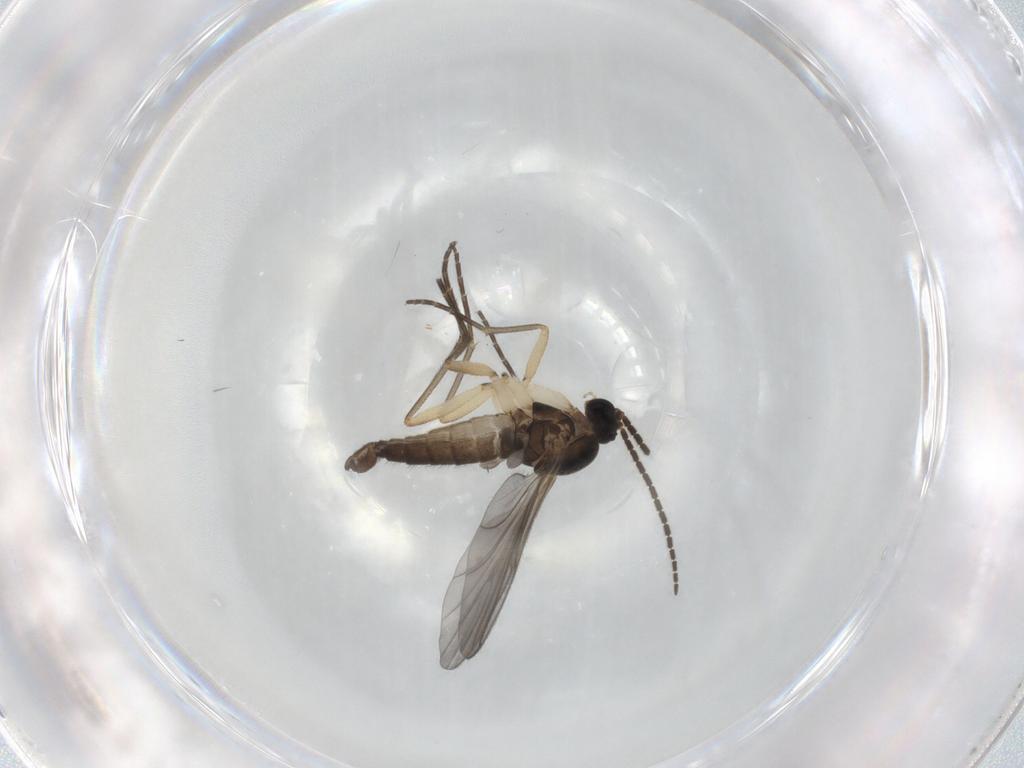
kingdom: Animalia
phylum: Arthropoda
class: Insecta
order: Diptera
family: Sciaridae
